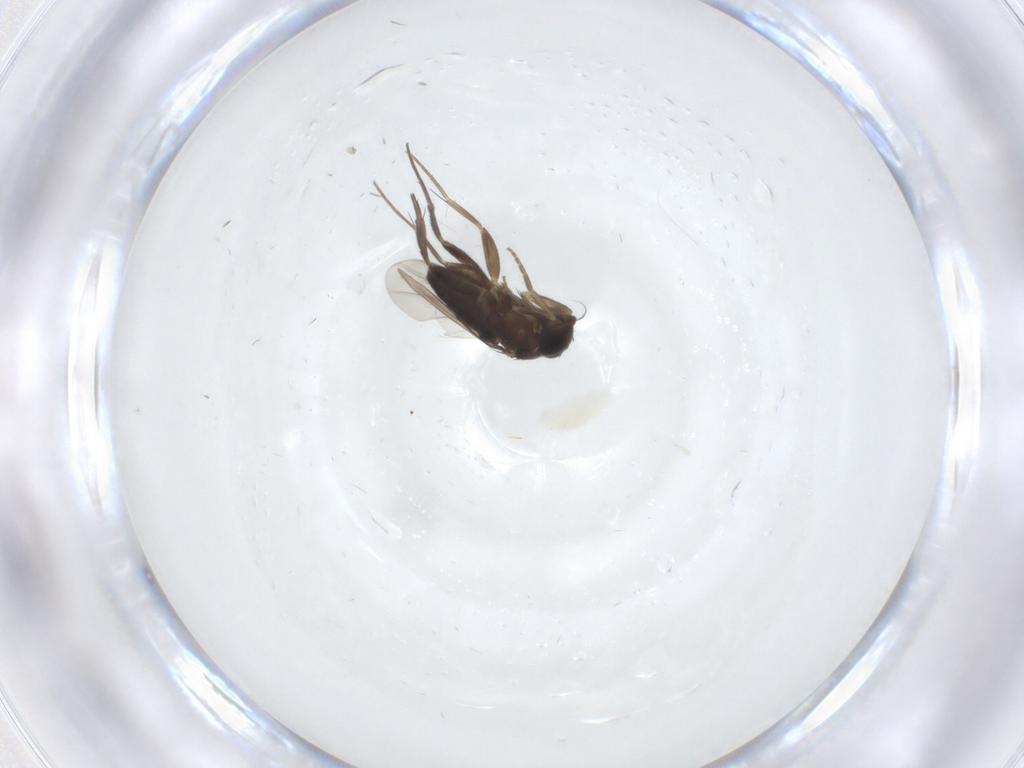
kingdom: Animalia
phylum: Arthropoda
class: Insecta
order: Diptera
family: Phoridae
